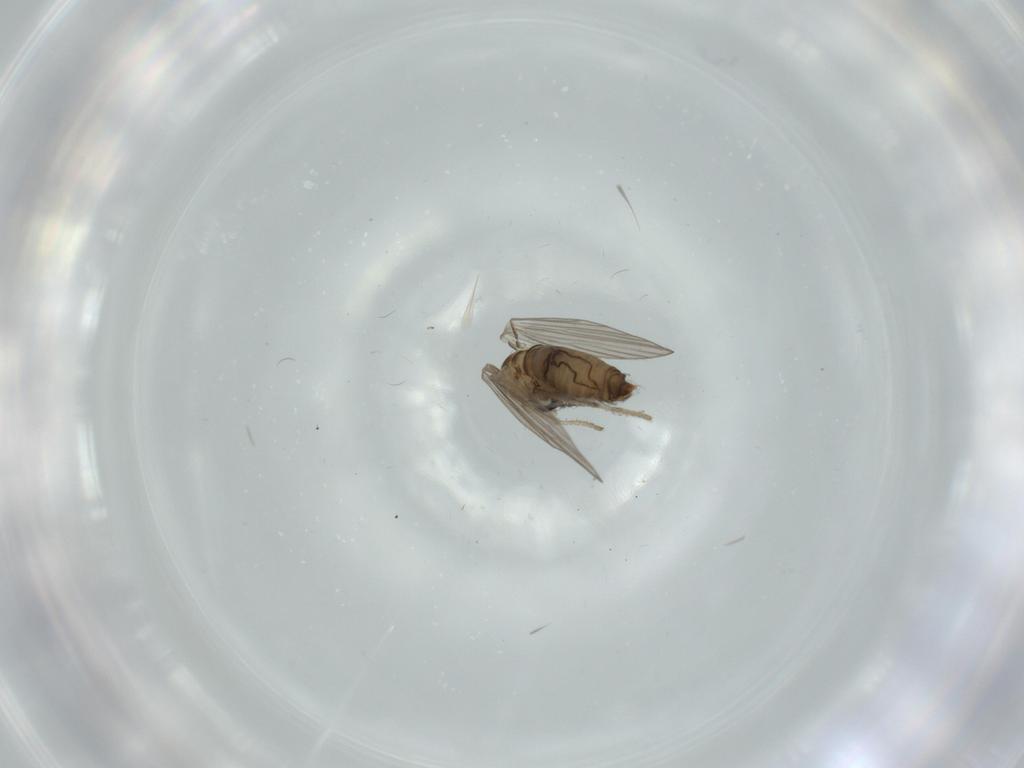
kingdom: Animalia
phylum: Arthropoda
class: Insecta
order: Diptera
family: Psychodidae
